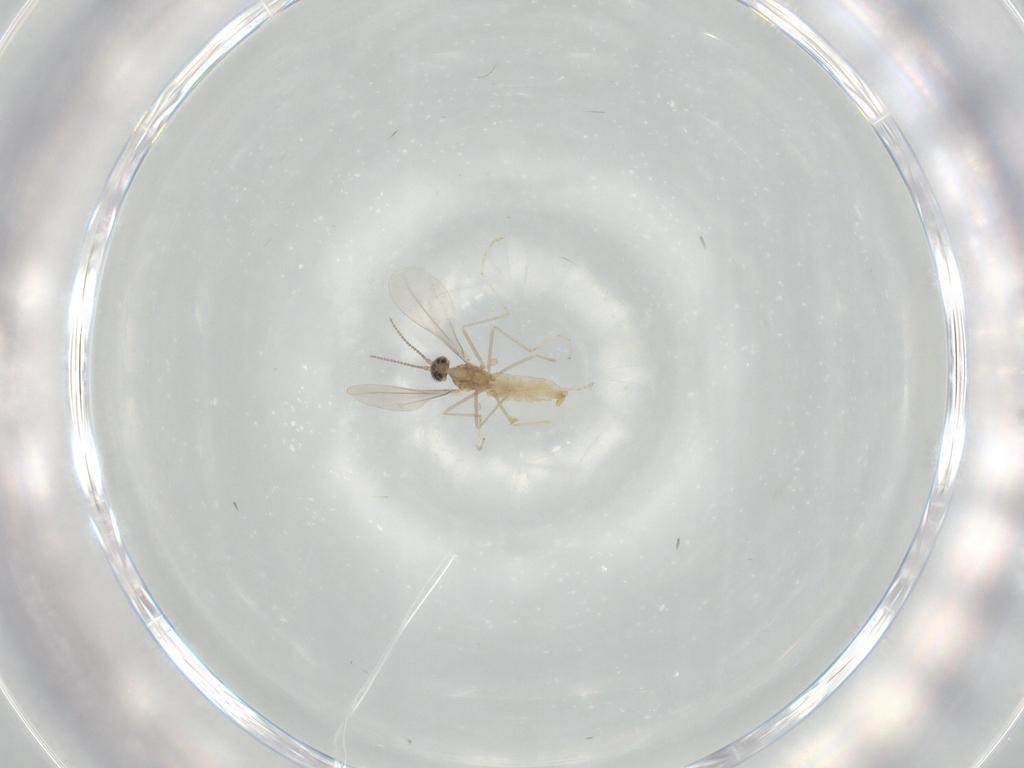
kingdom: Animalia
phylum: Arthropoda
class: Insecta
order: Diptera
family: Cecidomyiidae
